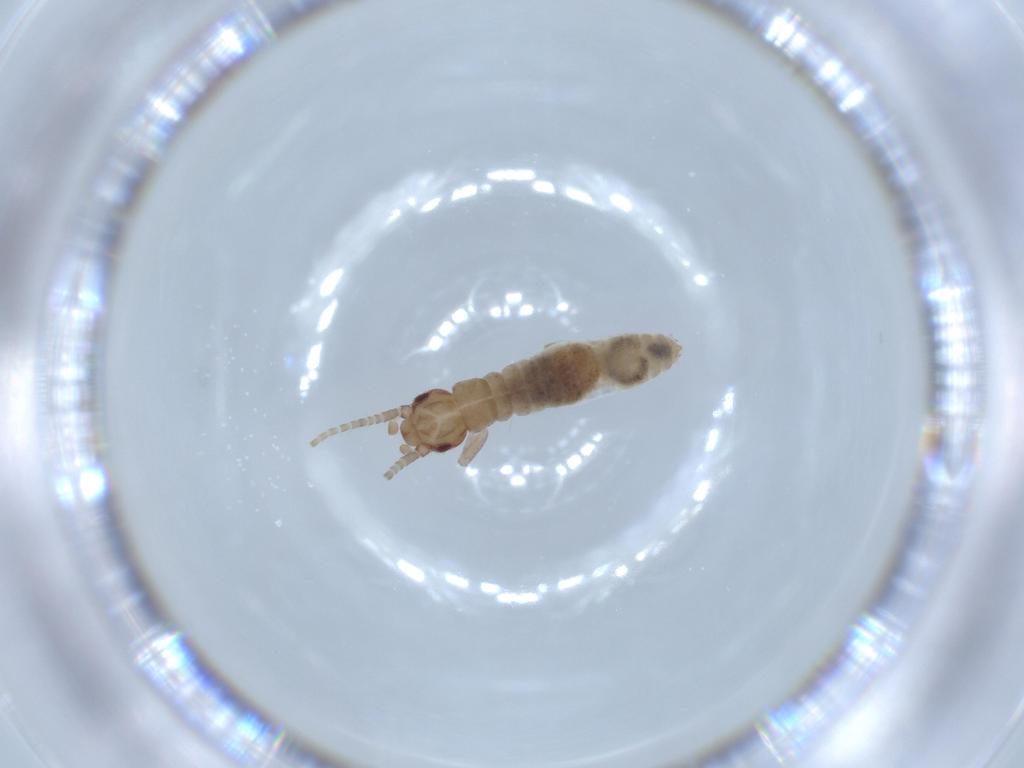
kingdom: Animalia
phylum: Arthropoda
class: Insecta
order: Orthoptera
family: Mogoplistidae
